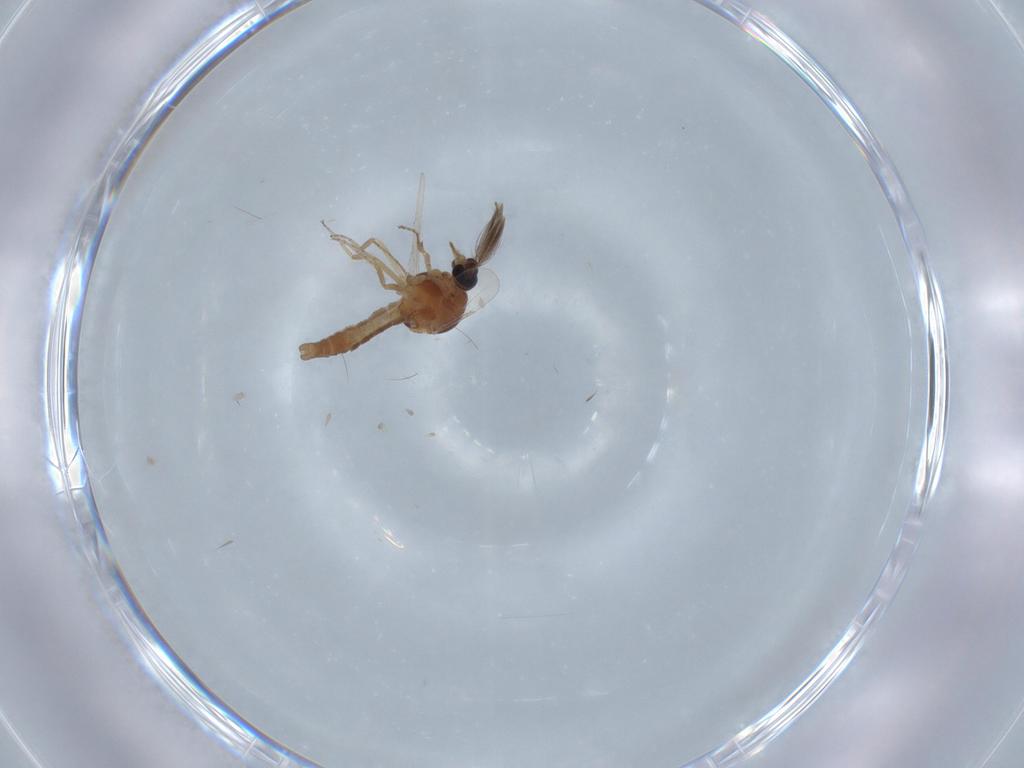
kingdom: Animalia
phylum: Arthropoda
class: Insecta
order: Diptera
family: Ceratopogonidae
